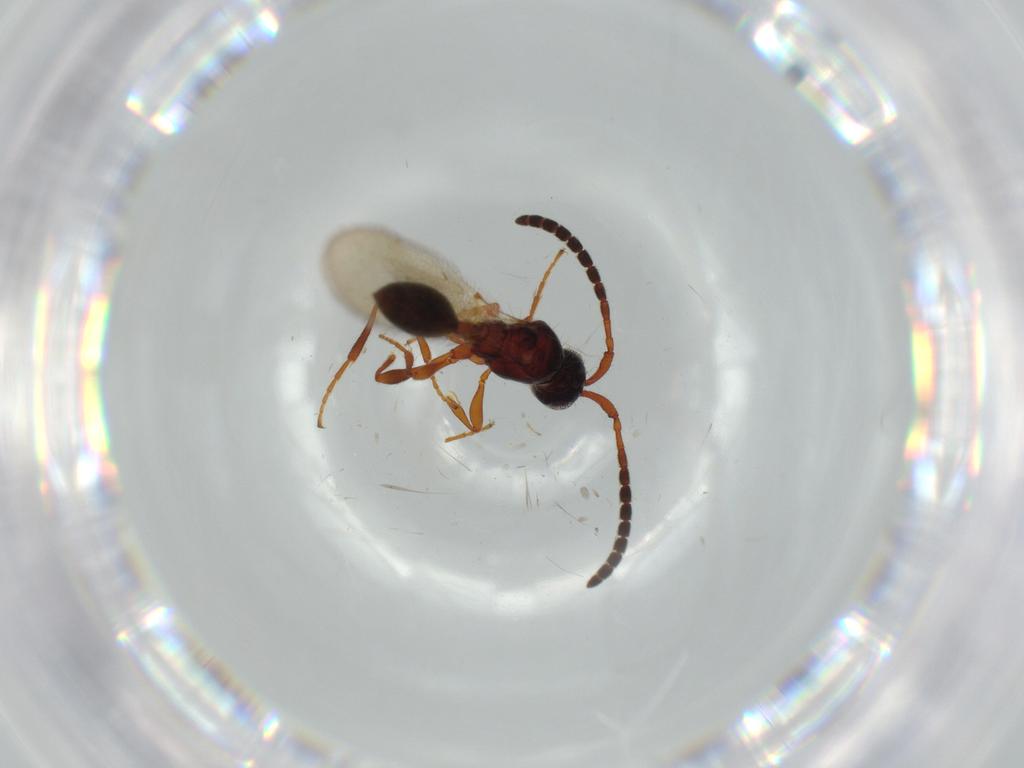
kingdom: Animalia
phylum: Arthropoda
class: Insecta
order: Hymenoptera
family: Diapriidae
